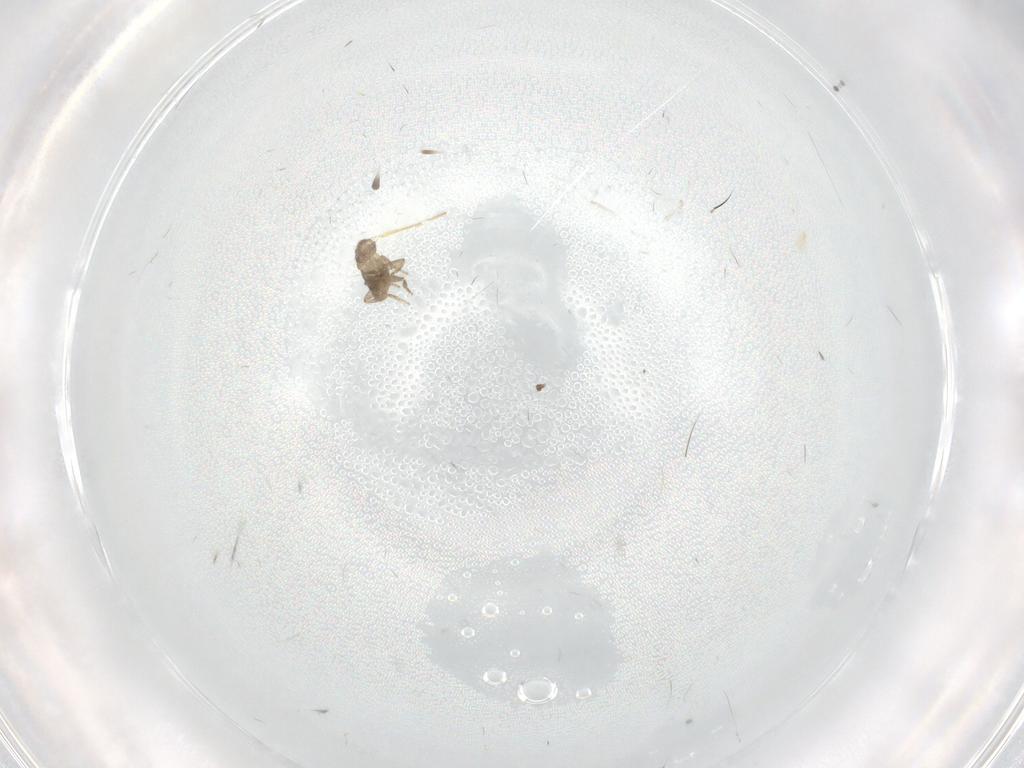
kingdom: Animalia
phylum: Arthropoda
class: Insecta
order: Diptera
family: Psychodidae
